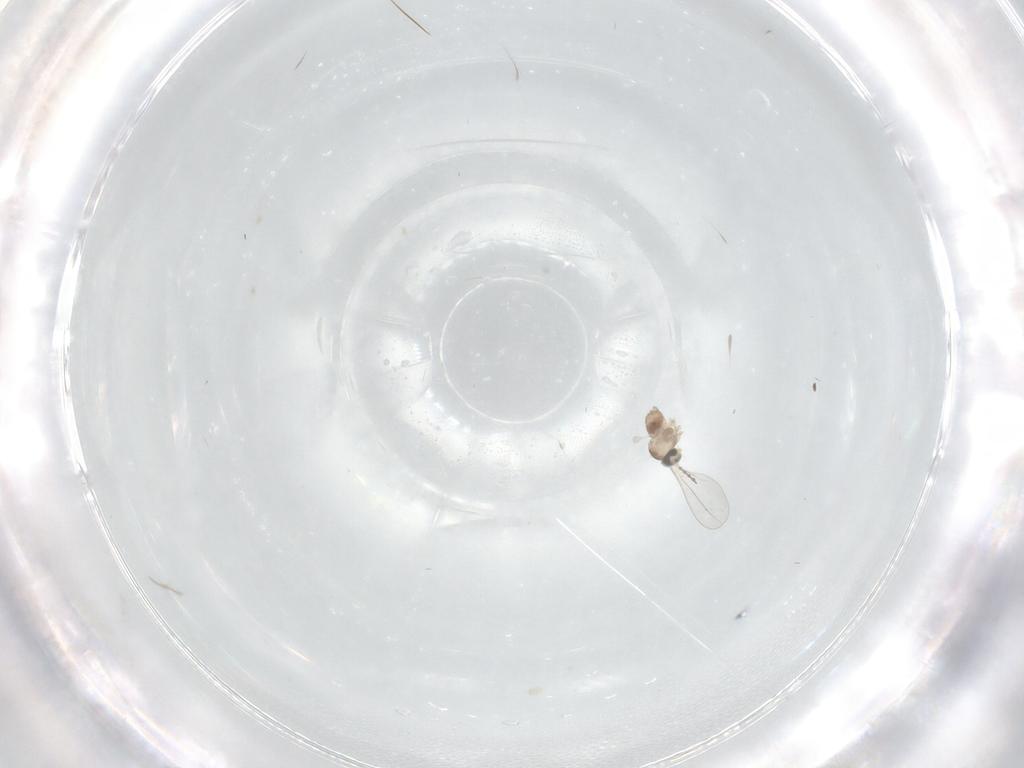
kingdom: Animalia
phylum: Arthropoda
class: Insecta
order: Diptera
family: Cecidomyiidae
